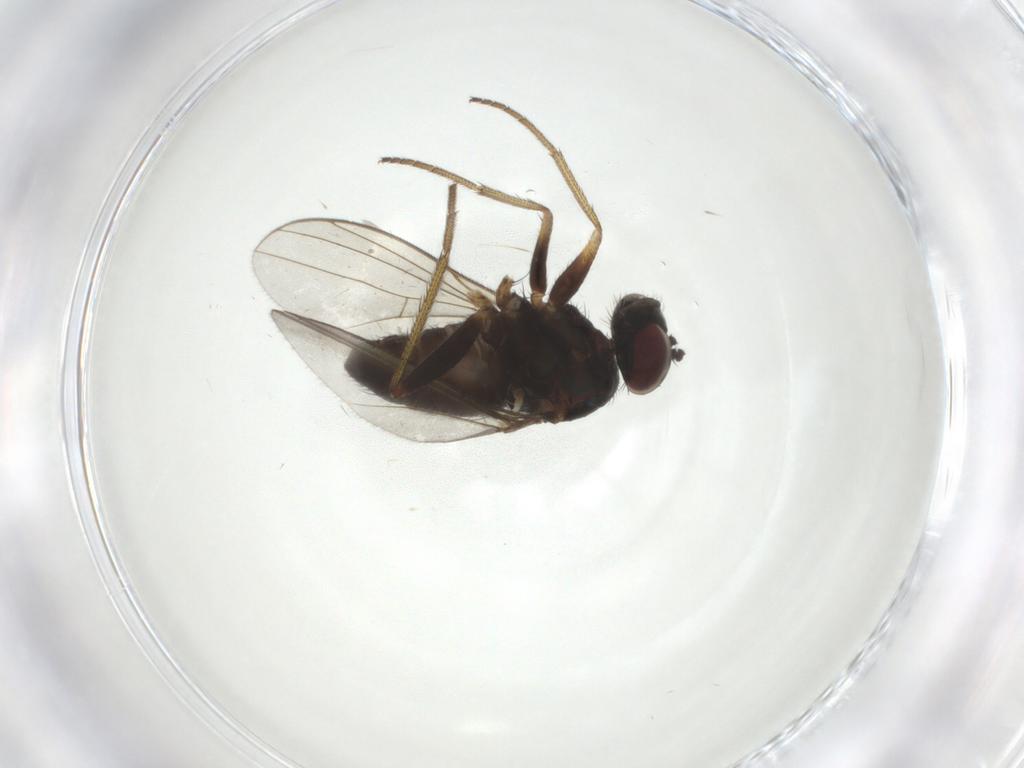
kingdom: Animalia
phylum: Arthropoda
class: Insecta
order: Diptera
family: Dolichopodidae
